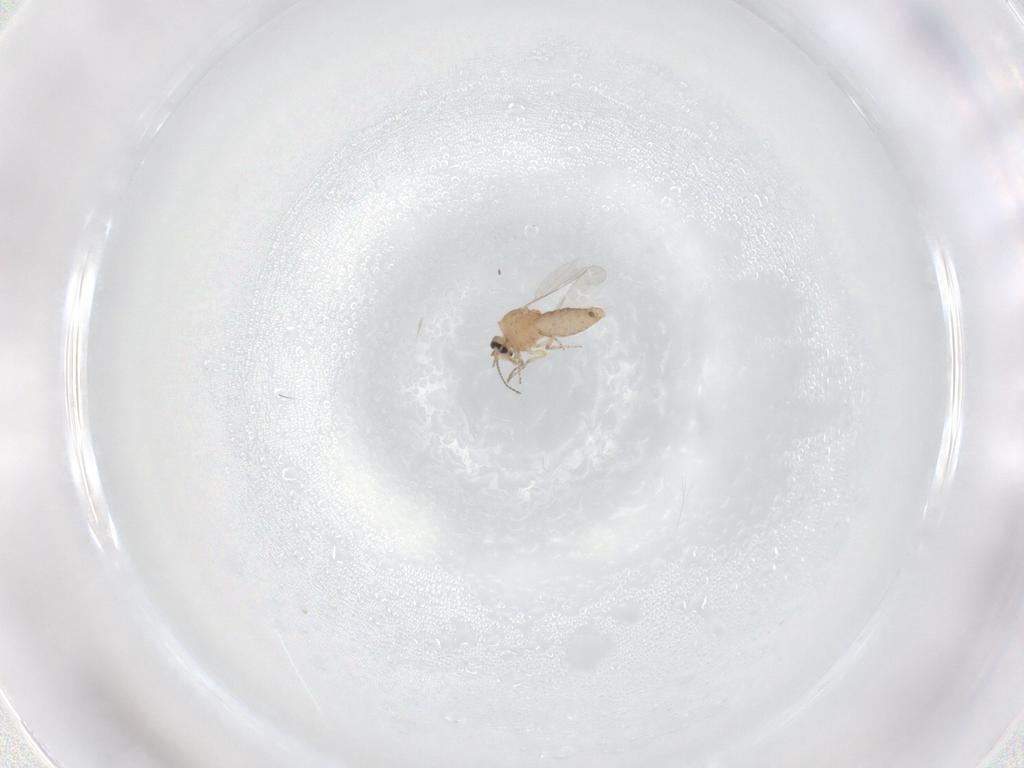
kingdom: Animalia
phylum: Arthropoda
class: Insecta
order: Diptera
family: Ceratopogonidae
